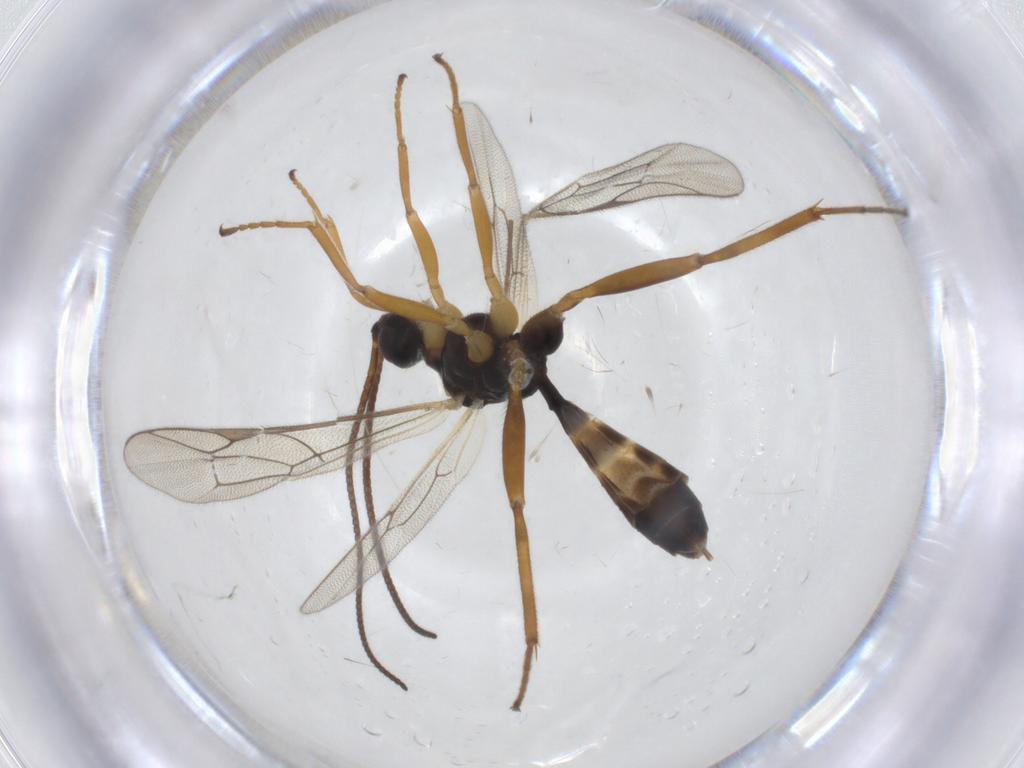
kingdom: Animalia
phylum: Arthropoda
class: Insecta
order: Hymenoptera
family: Ichneumonidae
